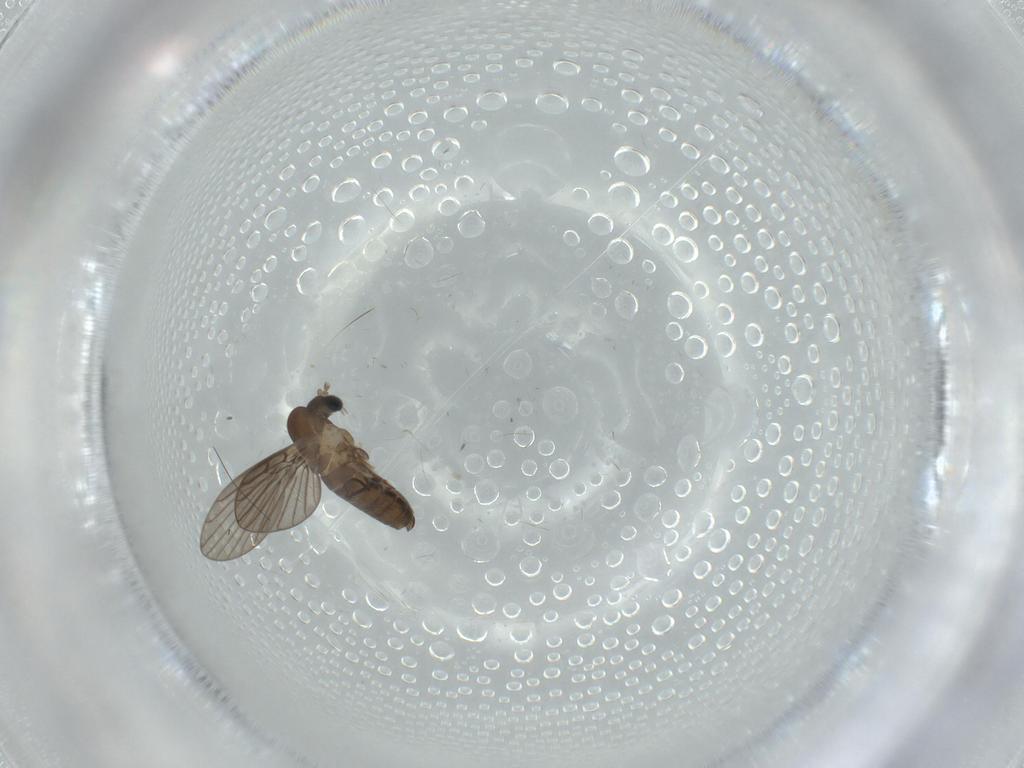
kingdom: Animalia
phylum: Arthropoda
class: Insecta
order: Diptera
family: Psychodidae
